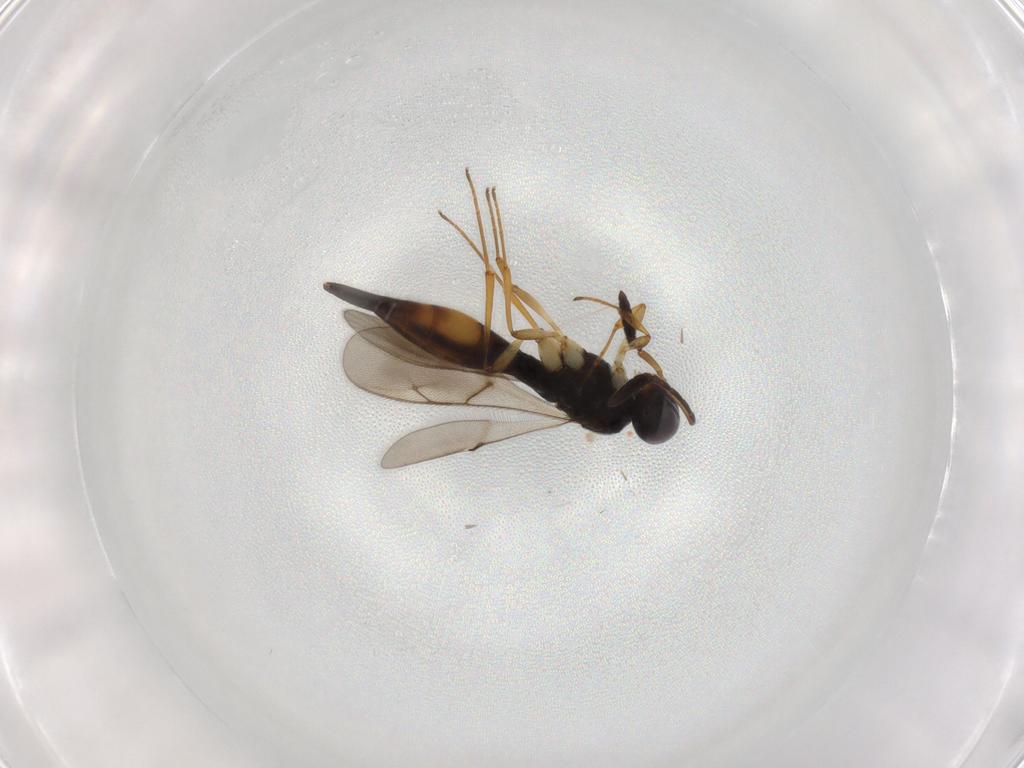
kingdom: Animalia
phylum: Arthropoda
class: Insecta
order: Hymenoptera
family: Scelionidae
